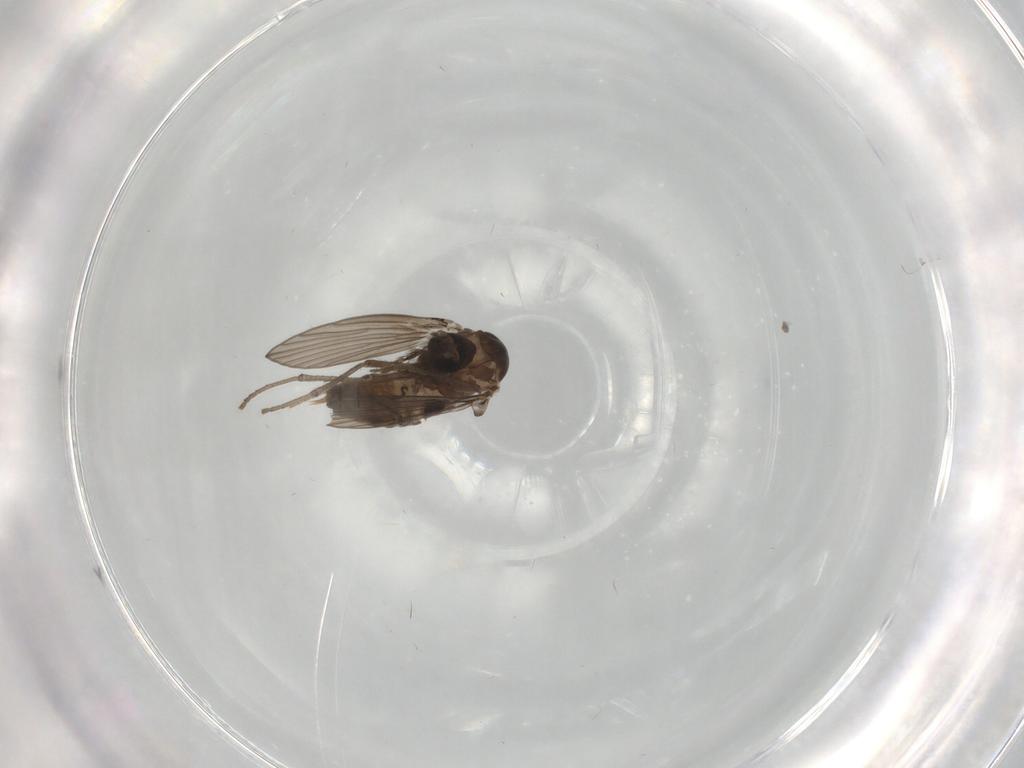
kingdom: Animalia
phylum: Arthropoda
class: Insecta
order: Diptera
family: Psychodidae
